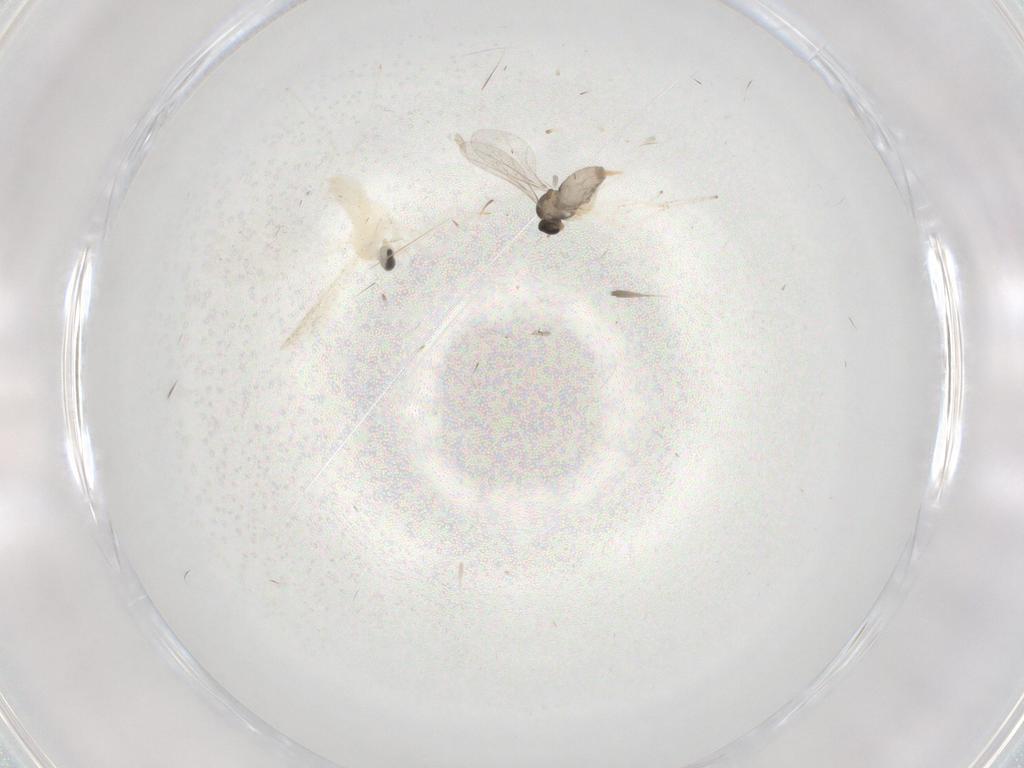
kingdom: Animalia
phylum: Arthropoda
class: Insecta
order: Diptera
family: Cecidomyiidae
